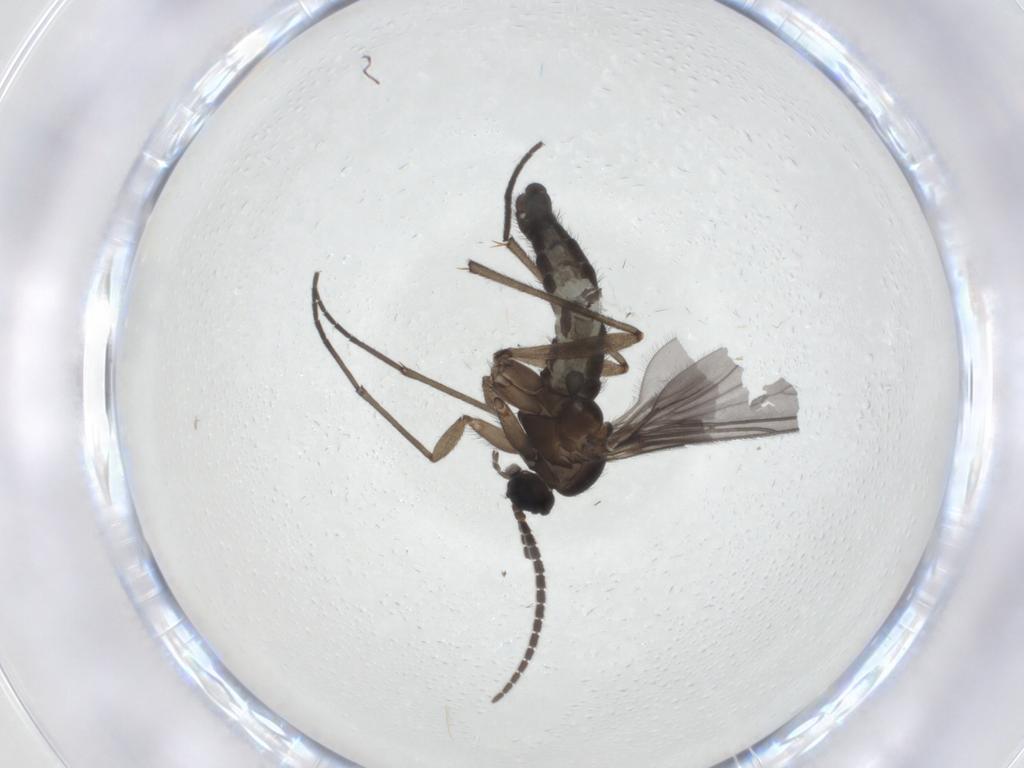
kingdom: Animalia
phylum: Arthropoda
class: Insecta
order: Diptera
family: Sciaridae
